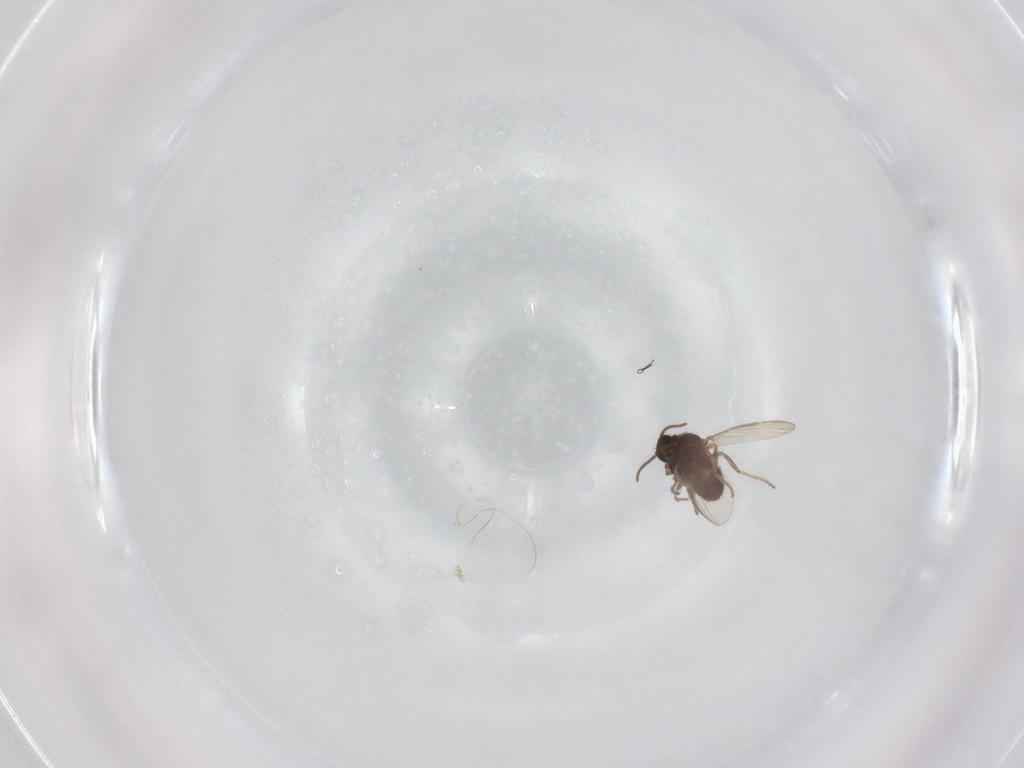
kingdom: Animalia
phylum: Arthropoda
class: Insecta
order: Diptera
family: Ceratopogonidae
